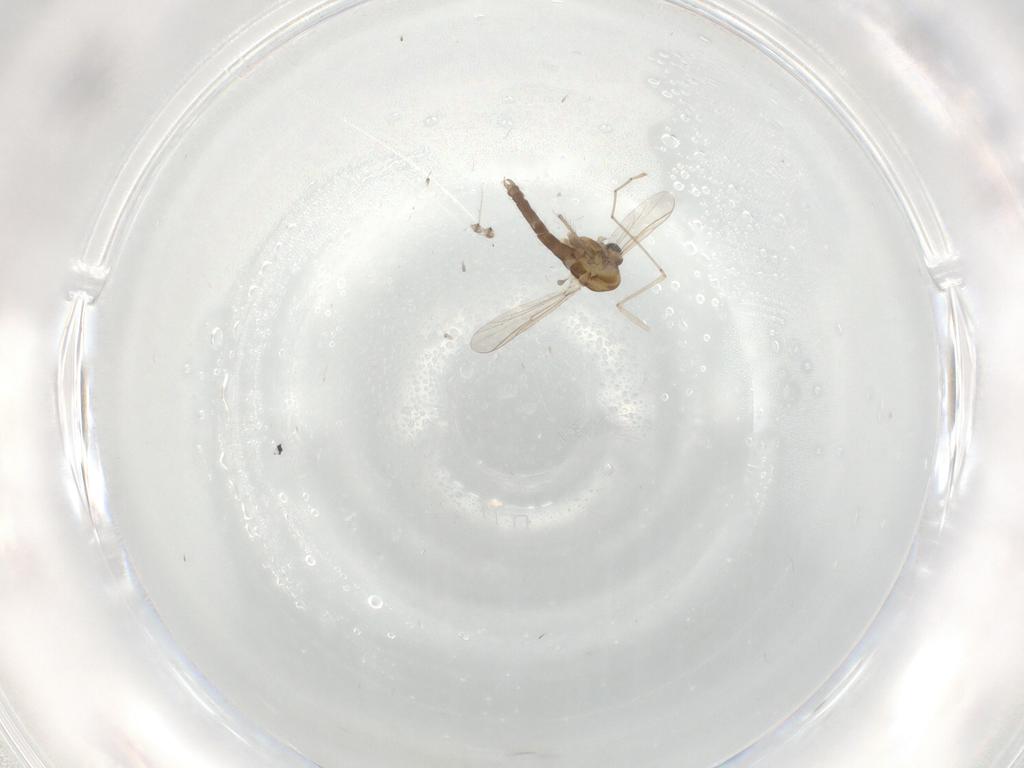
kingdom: Animalia
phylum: Arthropoda
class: Insecta
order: Diptera
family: Chironomidae
